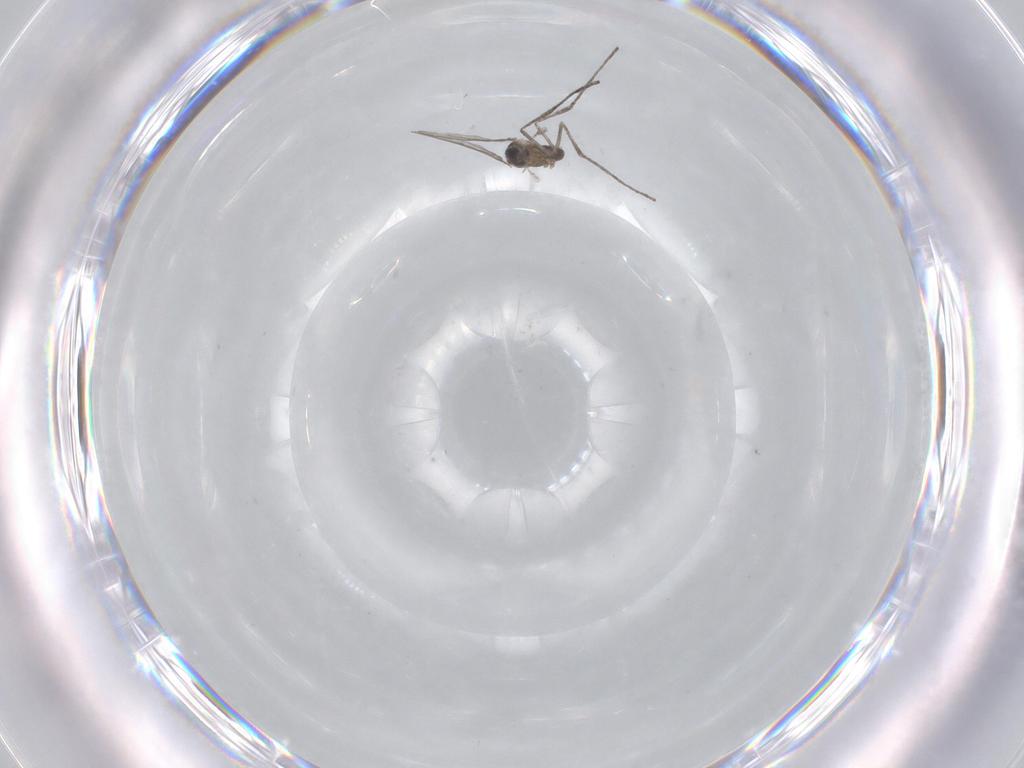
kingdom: Animalia
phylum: Arthropoda
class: Insecta
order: Diptera
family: Cecidomyiidae
